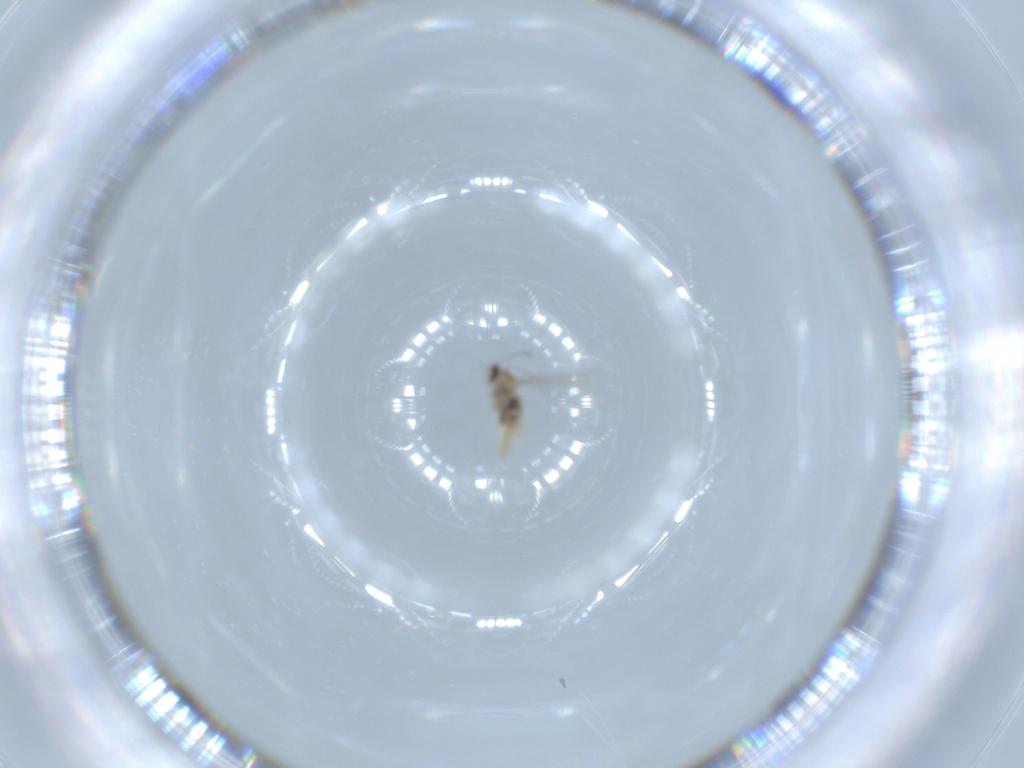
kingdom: Animalia
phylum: Arthropoda
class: Insecta
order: Diptera
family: Cecidomyiidae
